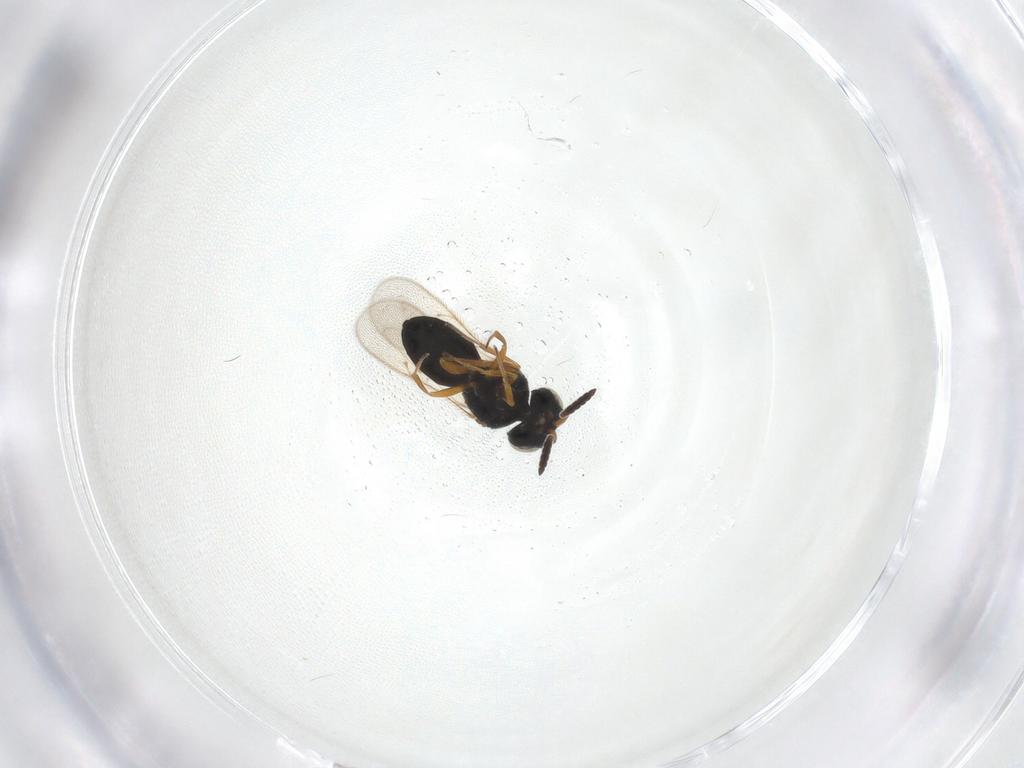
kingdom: Animalia
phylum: Arthropoda
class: Insecta
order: Hymenoptera
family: Scelionidae
